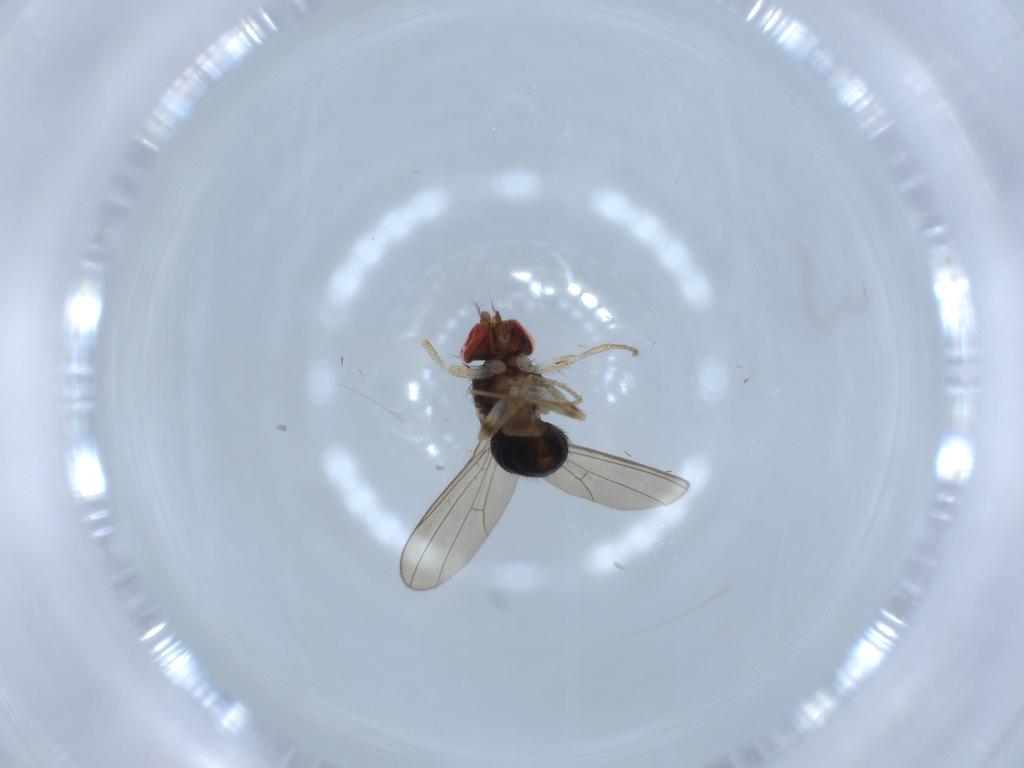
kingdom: Animalia
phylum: Arthropoda
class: Insecta
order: Diptera
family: Drosophilidae
